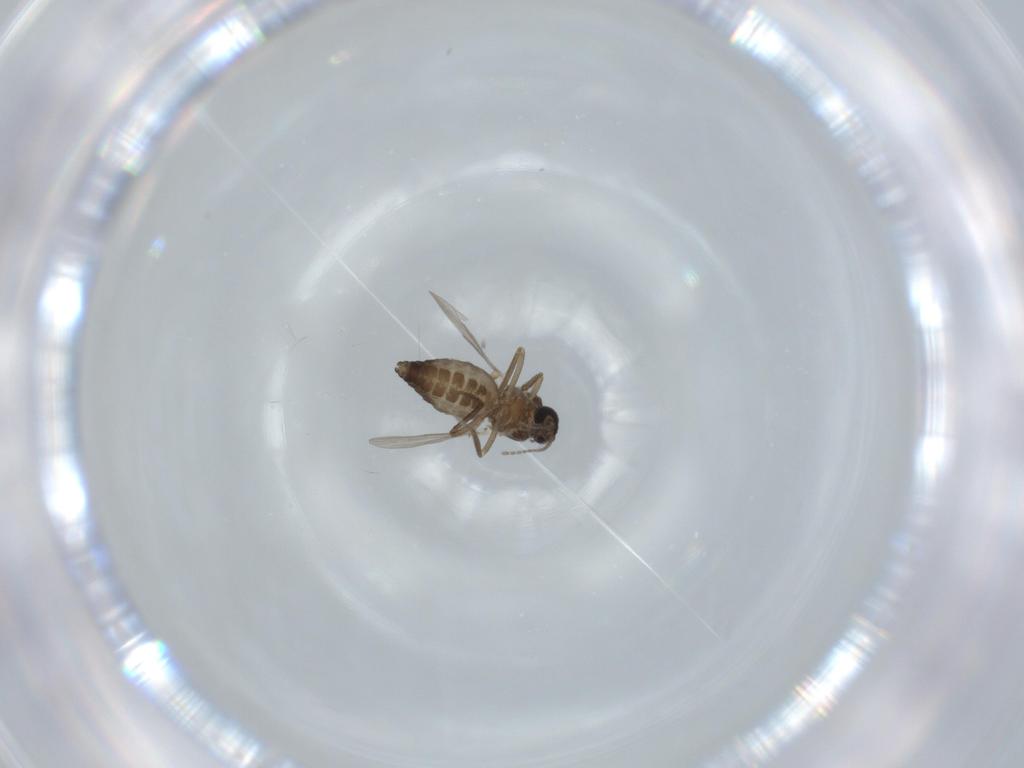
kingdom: Animalia
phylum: Arthropoda
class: Insecta
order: Diptera
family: Ceratopogonidae
